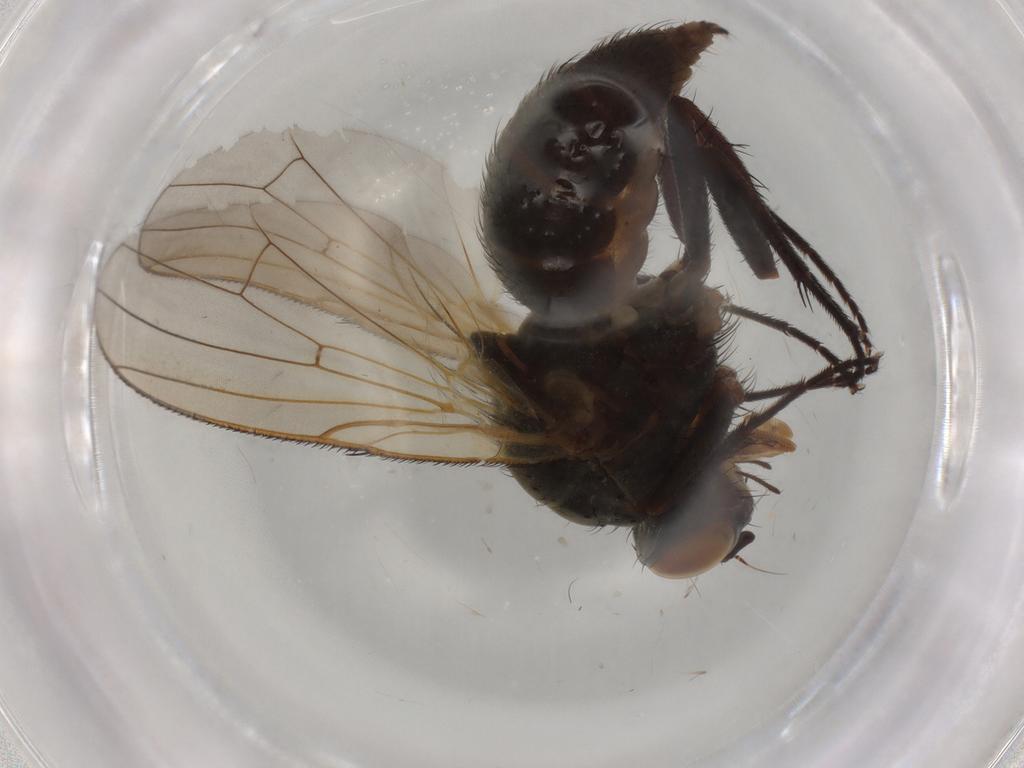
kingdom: Animalia
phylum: Arthropoda
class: Insecta
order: Diptera
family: Anthomyiidae
